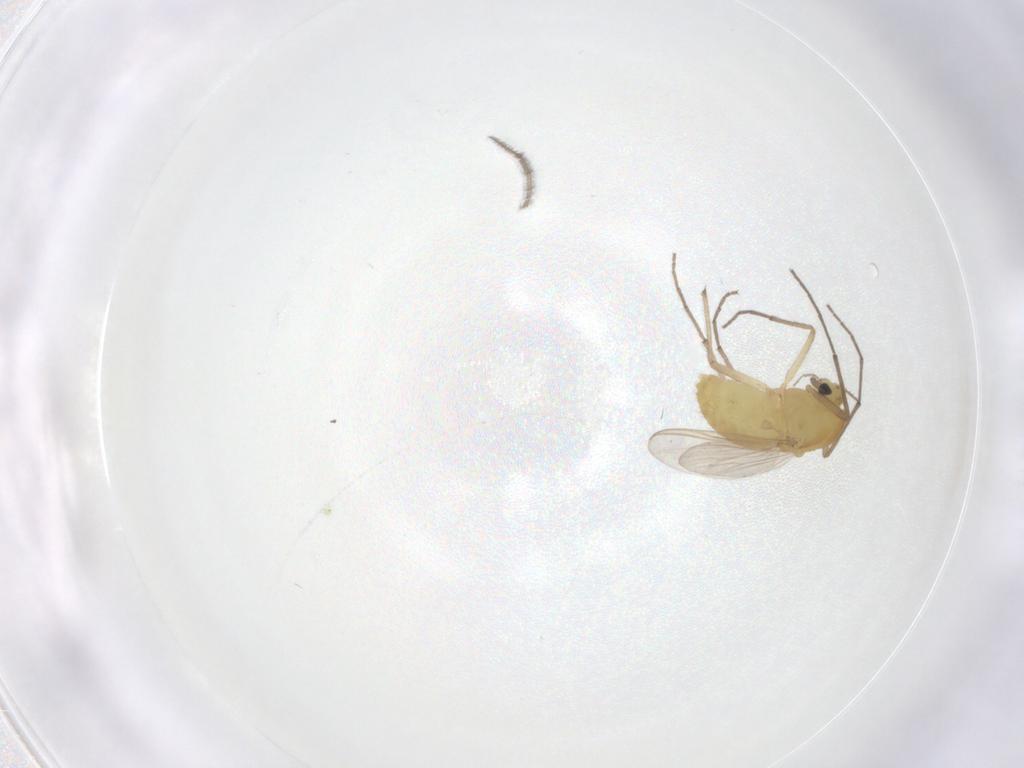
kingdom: Animalia
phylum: Arthropoda
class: Insecta
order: Diptera
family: Chironomidae
